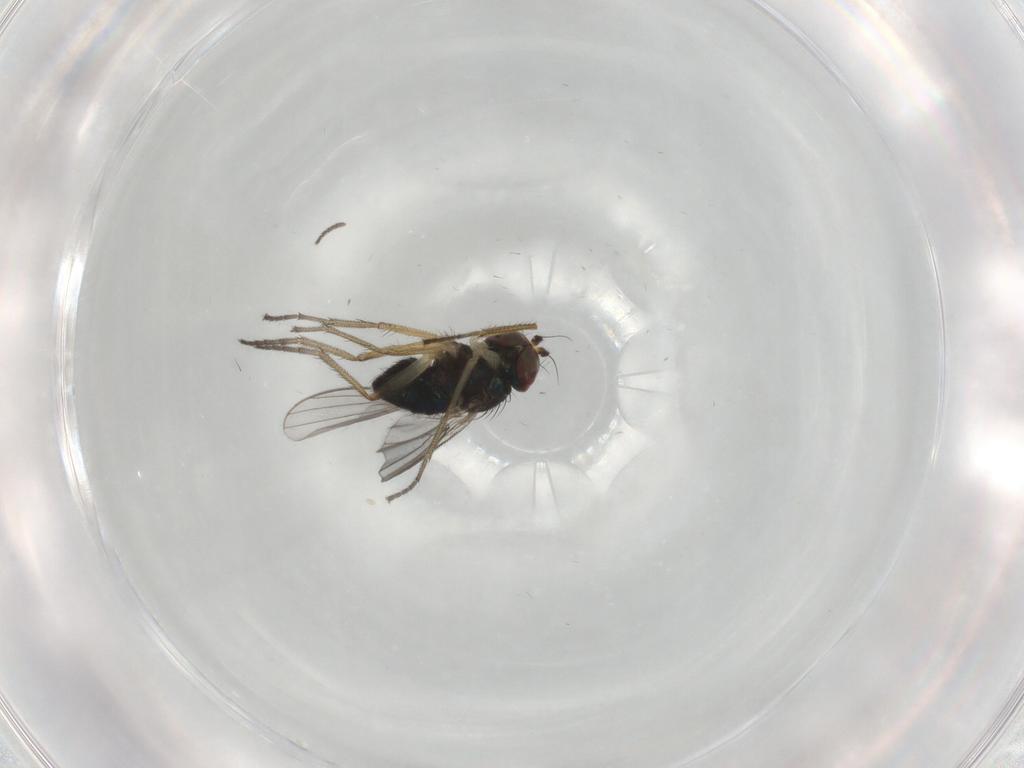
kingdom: Animalia
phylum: Arthropoda
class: Insecta
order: Diptera
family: Dolichopodidae
